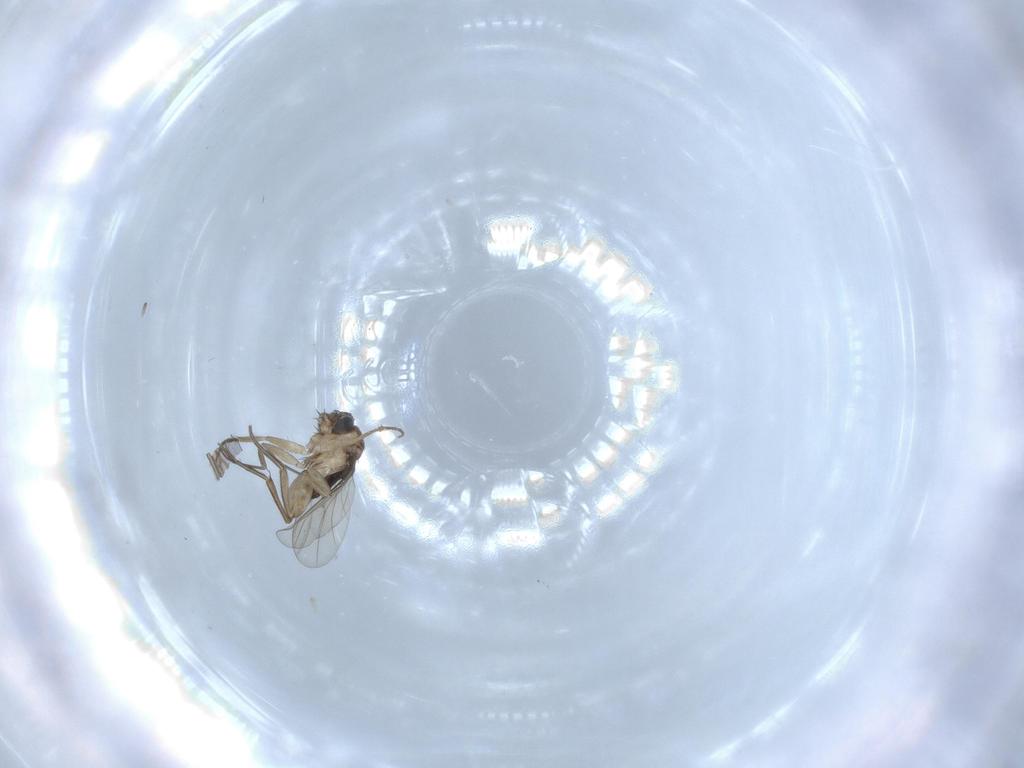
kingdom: Animalia
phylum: Arthropoda
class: Insecta
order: Diptera
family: Phoridae
